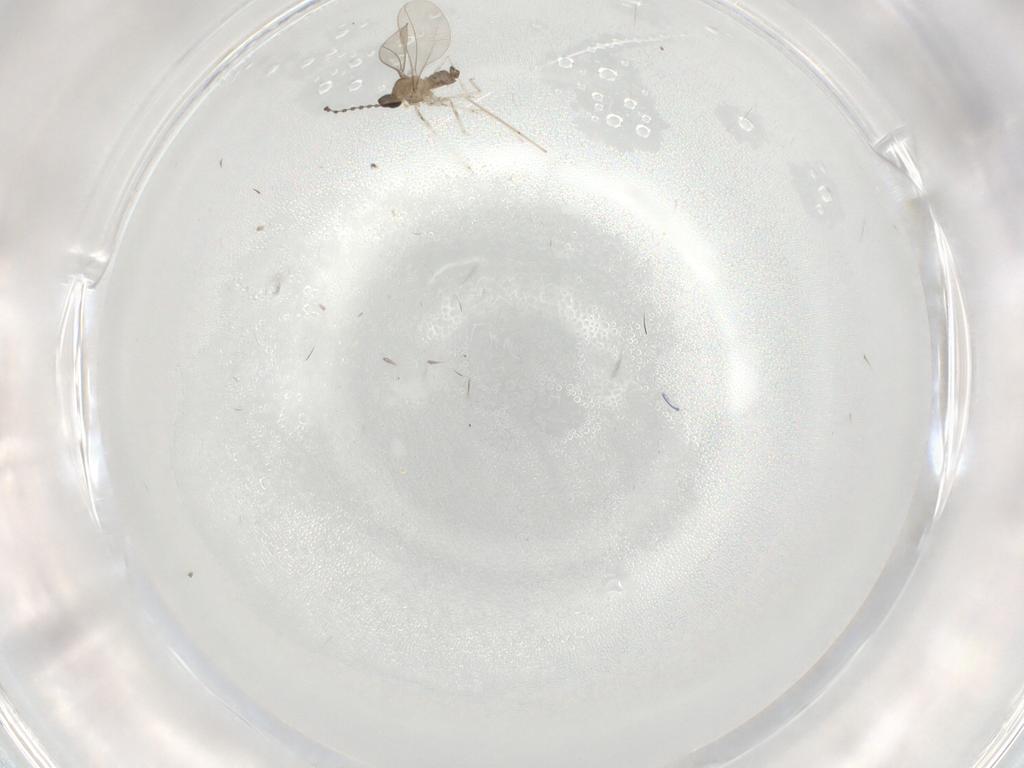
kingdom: Animalia
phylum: Arthropoda
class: Insecta
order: Diptera
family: Cecidomyiidae
